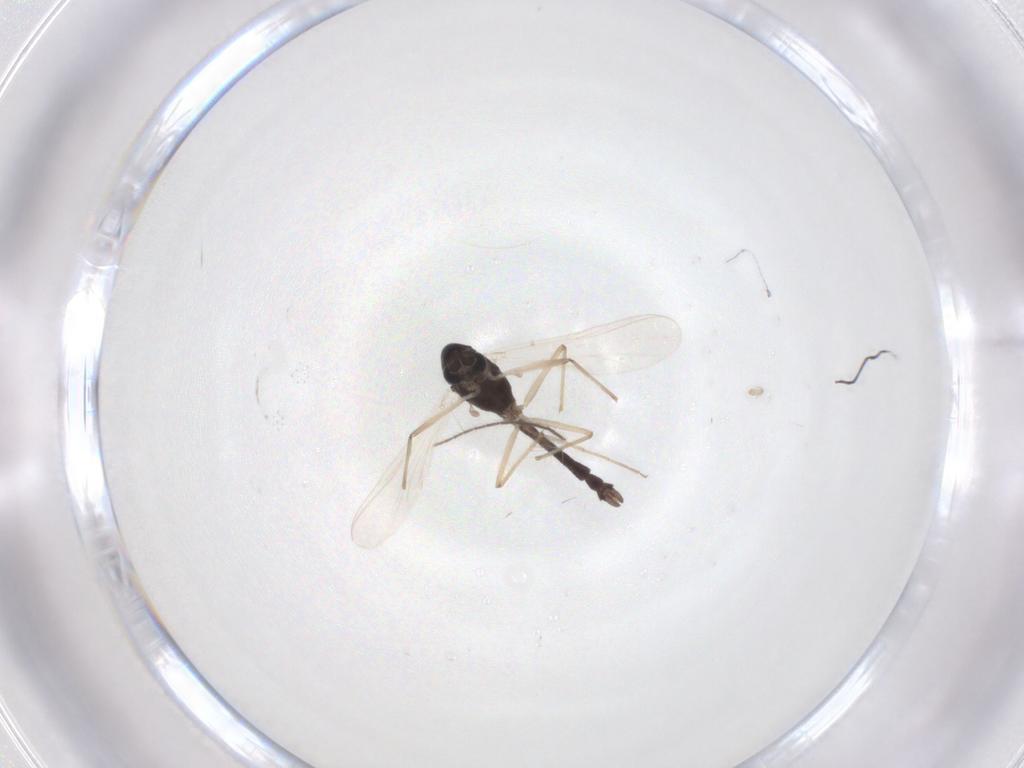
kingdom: Animalia
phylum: Arthropoda
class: Insecta
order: Diptera
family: Chironomidae
